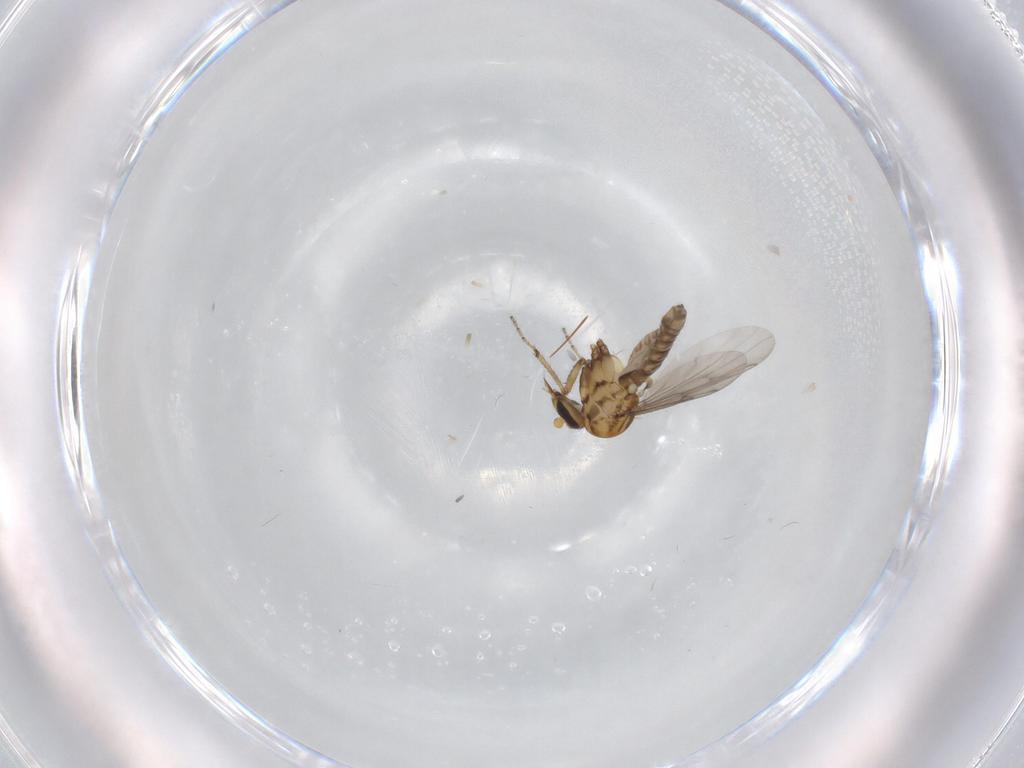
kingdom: Animalia
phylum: Arthropoda
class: Insecta
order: Diptera
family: Ceratopogonidae
